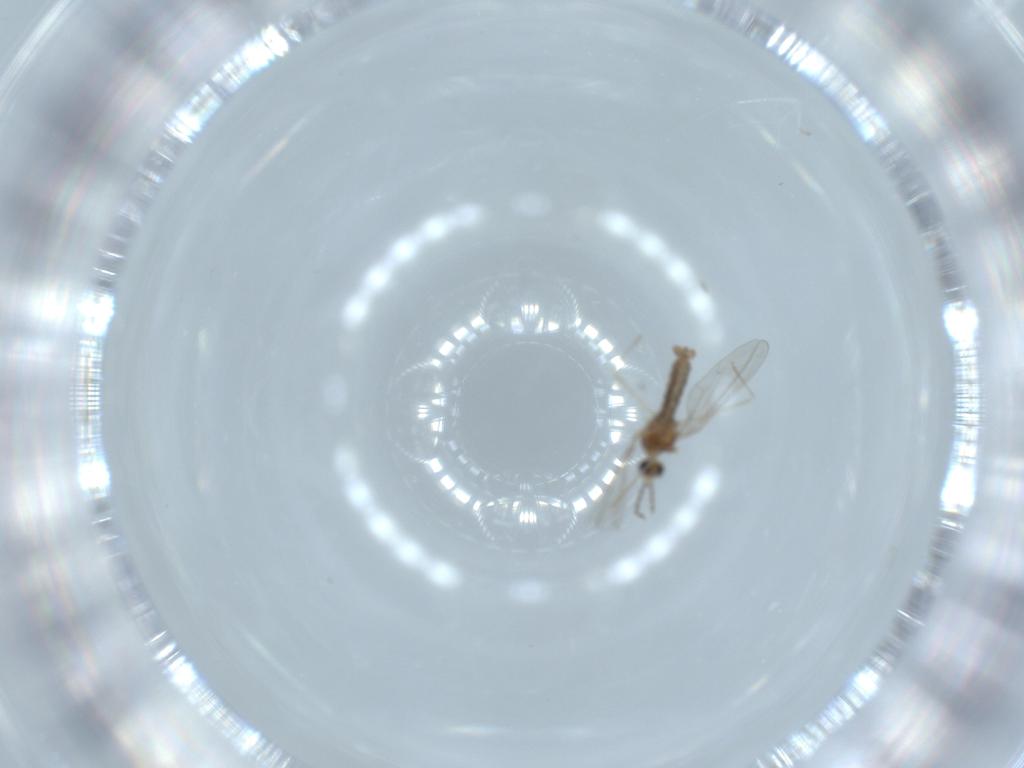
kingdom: Animalia
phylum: Arthropoda
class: Insecta
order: Diptera
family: Cecidomyiidae
